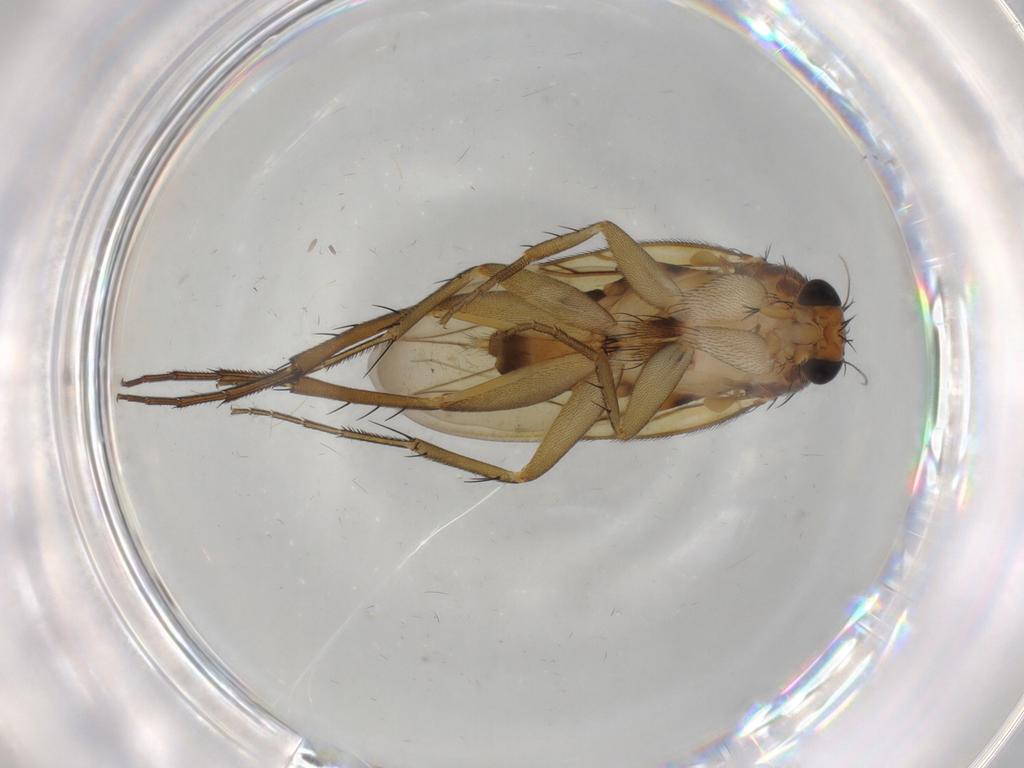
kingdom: Animalia
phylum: Arthropoda
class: Insecta
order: Diptera
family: Phoridae
